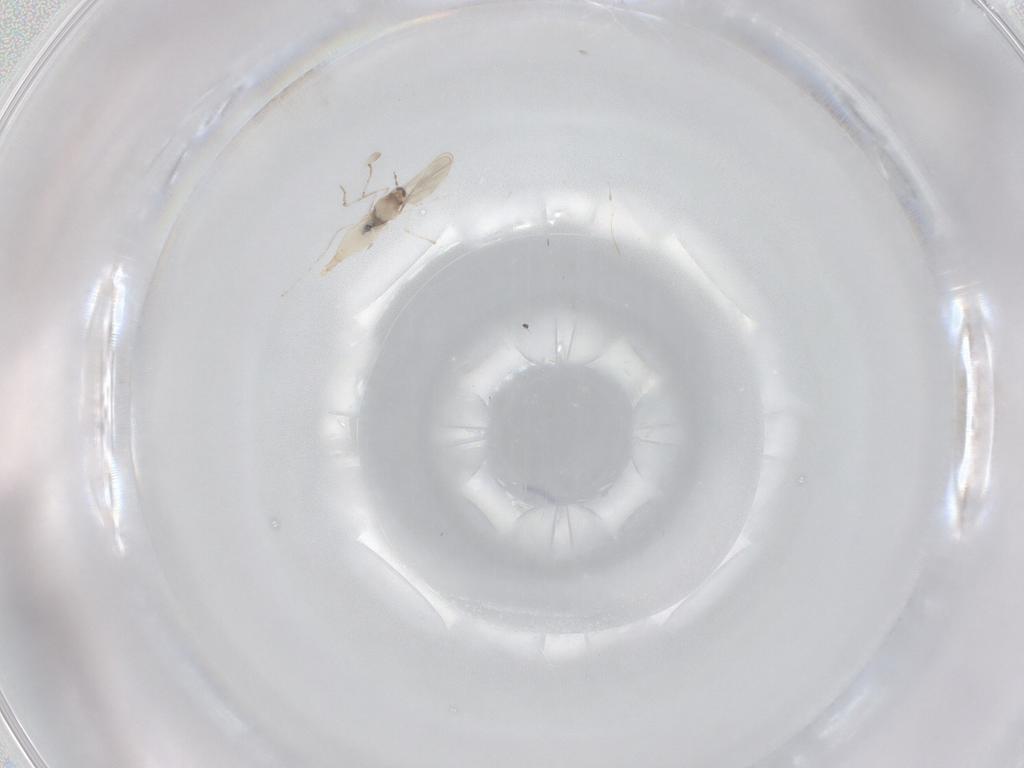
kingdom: Animalia
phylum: Arthropoda
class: Insecta
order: Diptera
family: Cecidomyiidae
